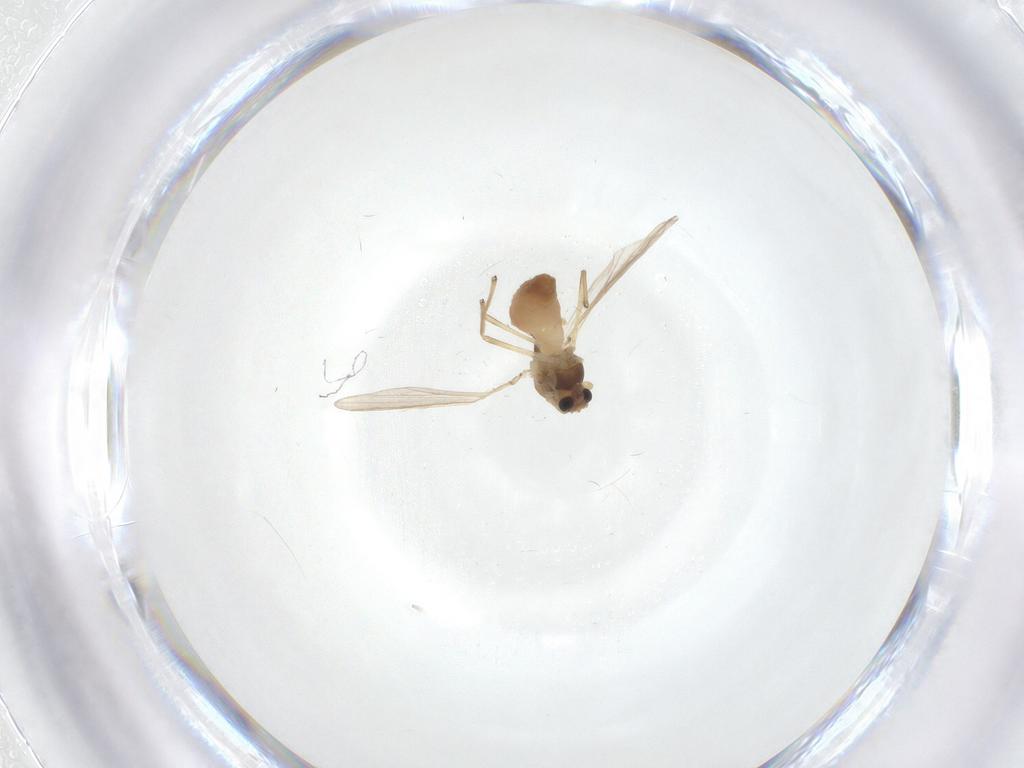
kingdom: Animalia
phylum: Arthropoda
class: Insecta
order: Diptera
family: Chironomidae
